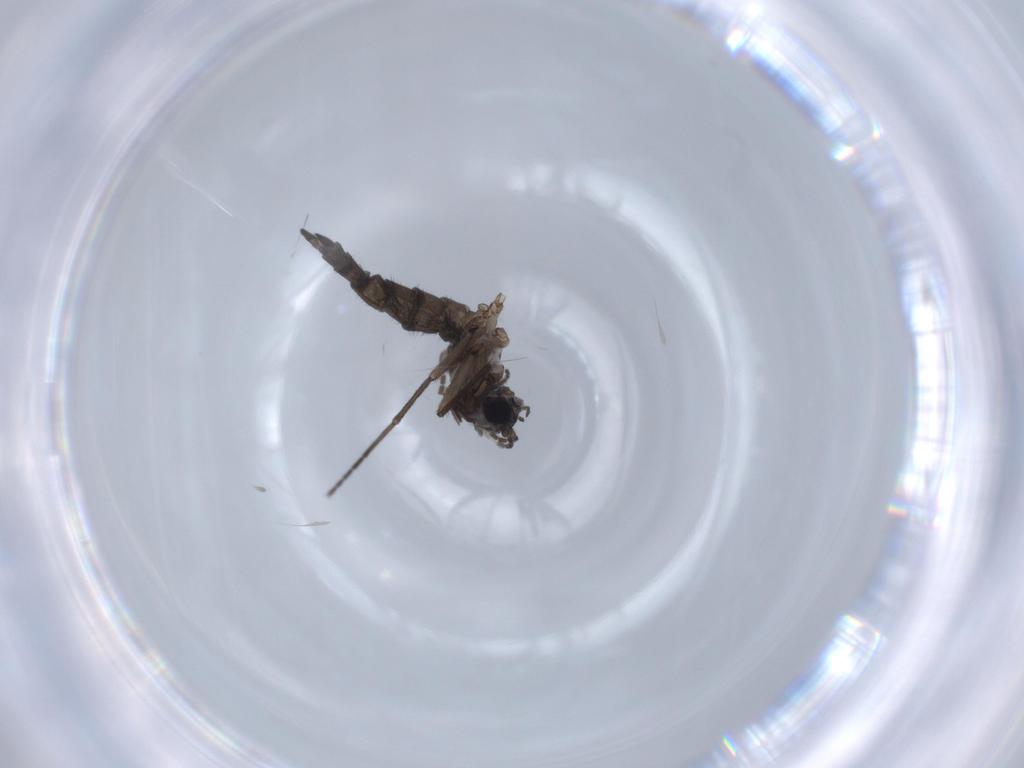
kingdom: Animalia
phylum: Arthropoda
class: Insecta
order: Diptera
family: Sciaridae
